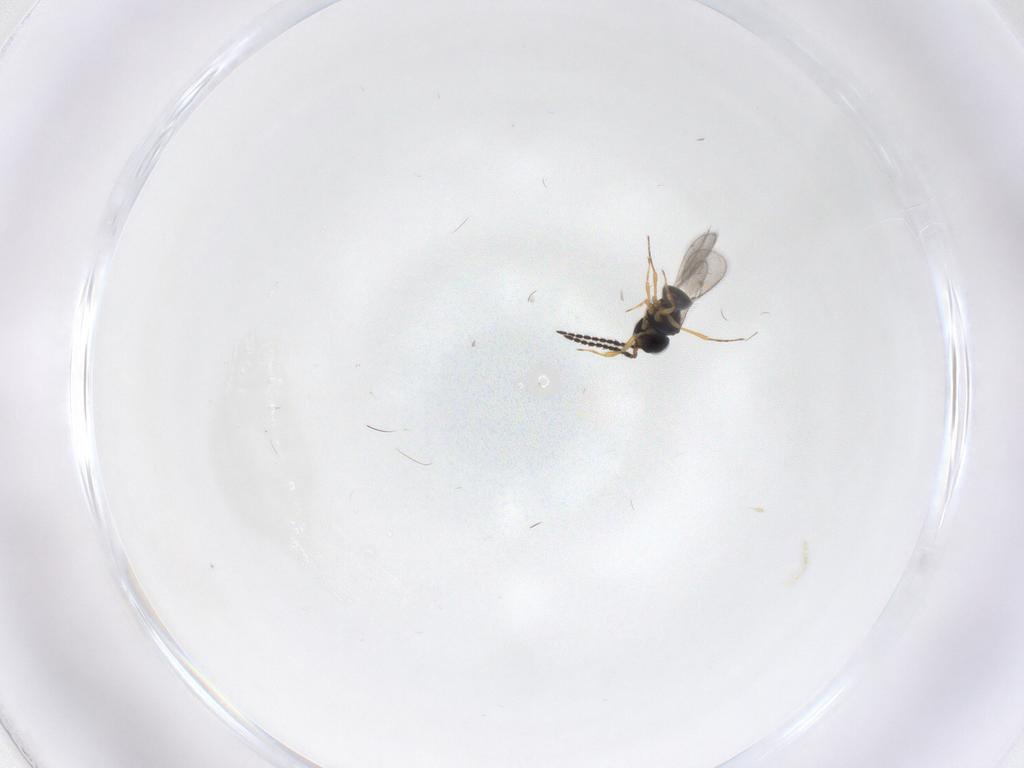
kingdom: Animalia
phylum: Arthropoda
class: Insecta
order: Hymenoptera
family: Scelionidae
